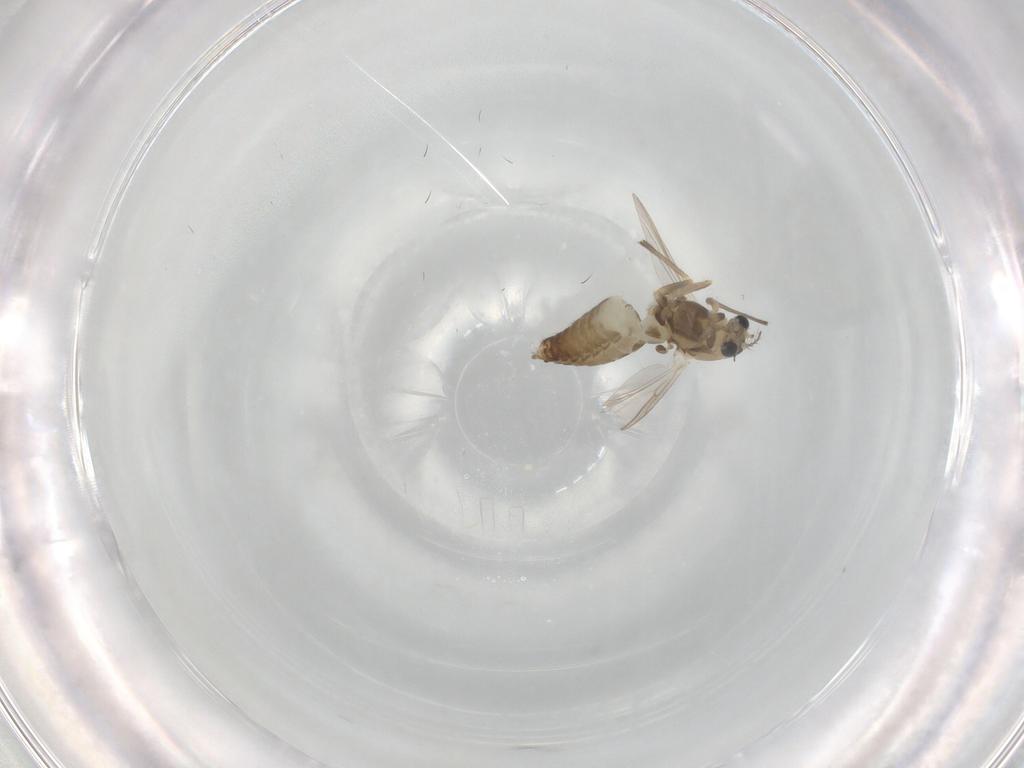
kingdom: Animalia
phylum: Arthropoda
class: Insecta
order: Diptera
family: Chironomidae
